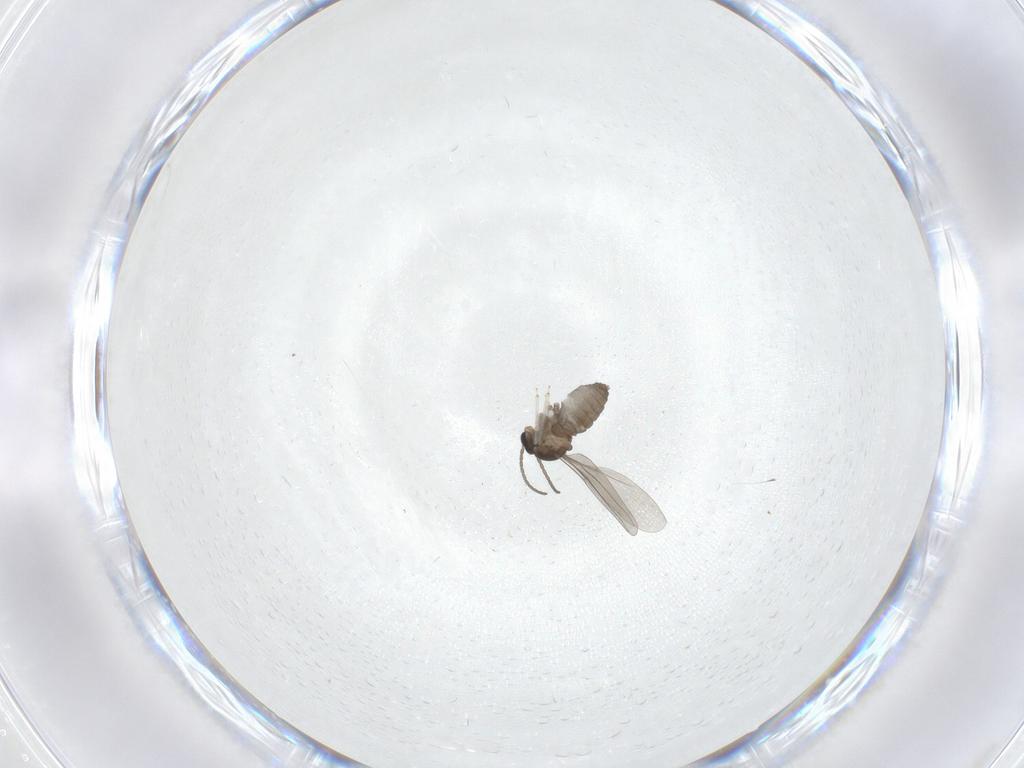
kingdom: Animalia
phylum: Arthropoda
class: Insecta
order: Diptera
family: Cecidomyiidae
